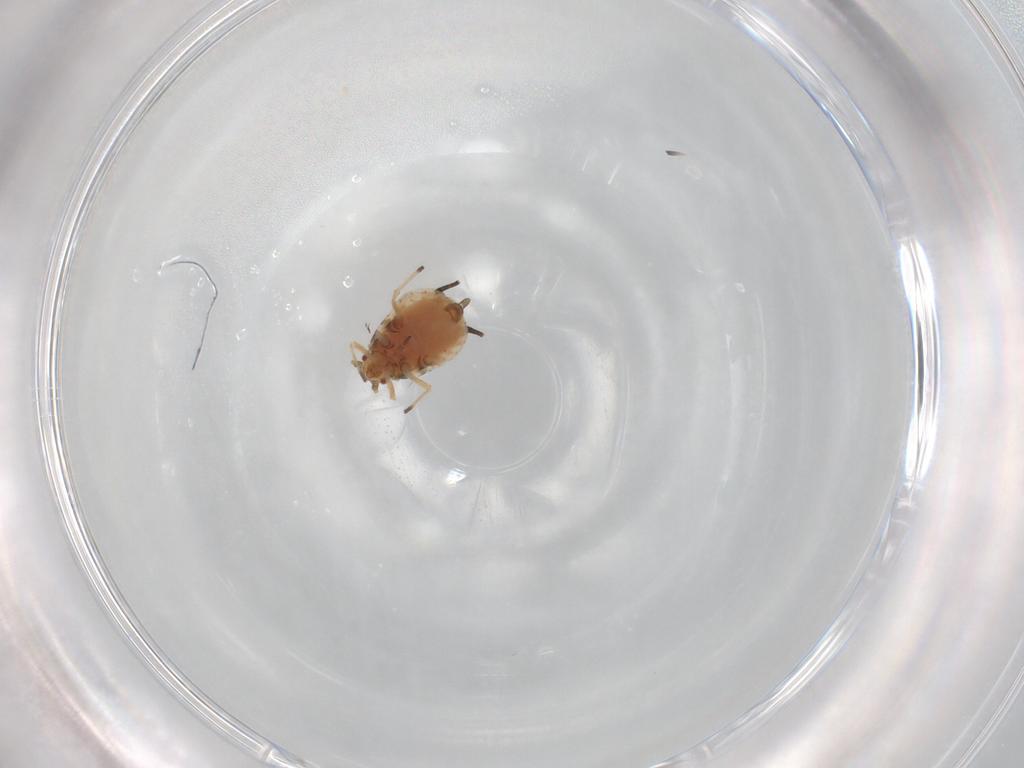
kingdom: Animalia
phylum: Arthropoda
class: Insecta
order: Hemiptera
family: Aphididae
